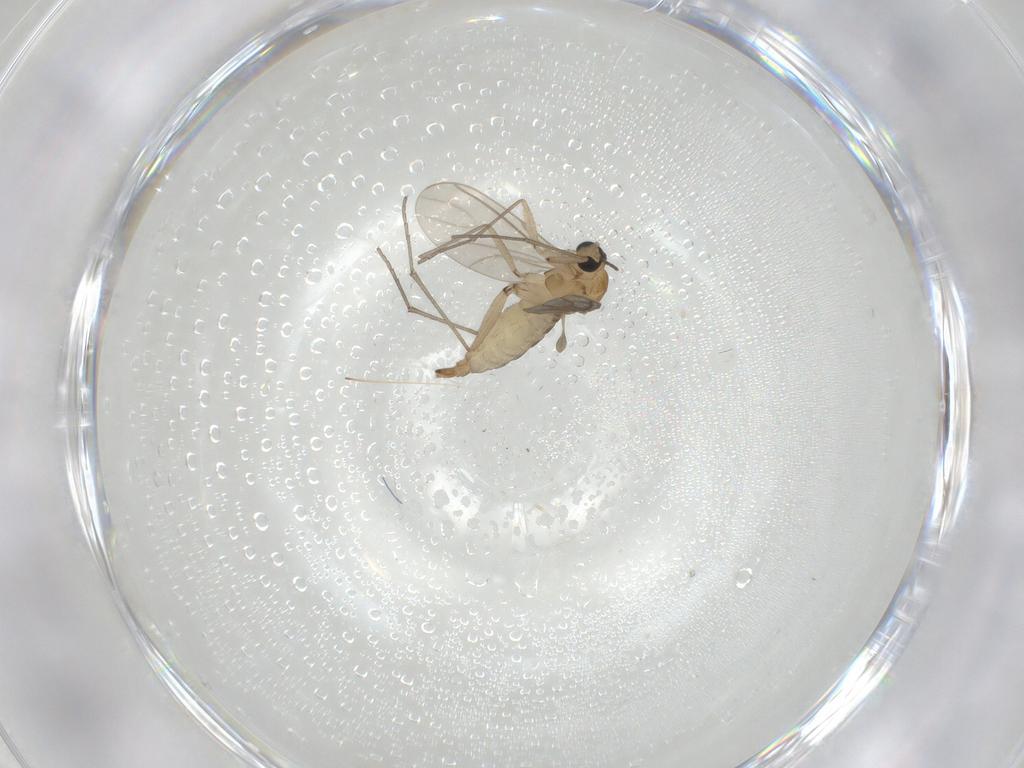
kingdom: Animalia
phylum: Arthropoda
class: Insecta
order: Diptera
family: Sciaridae
